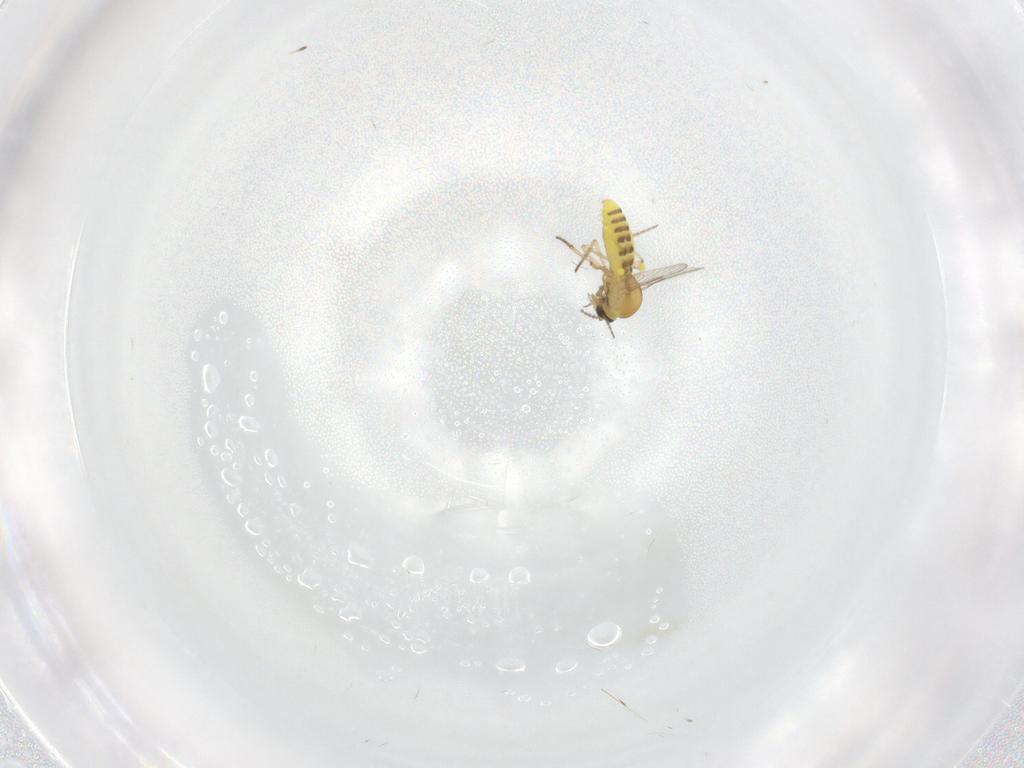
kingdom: Animalia
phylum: Arthropoda
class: Insecta
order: Diptera
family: Ceratopogonidae
